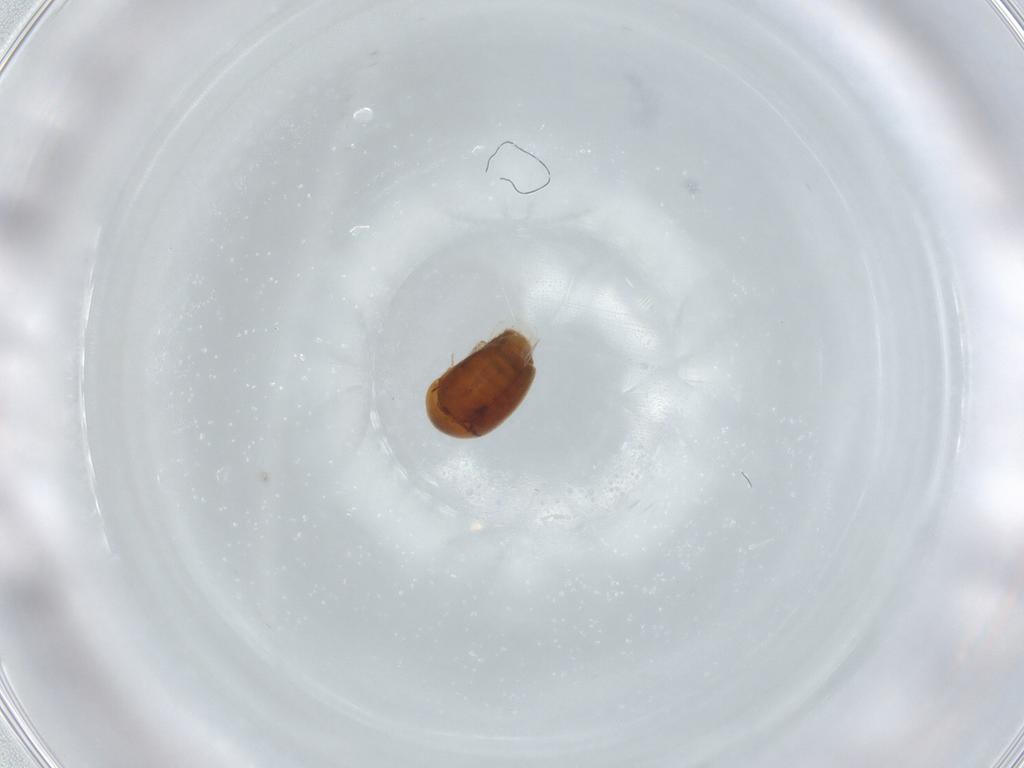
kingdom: Animalia
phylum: Arthropoda
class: Insecta
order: Coleoptera
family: Corylophidae
